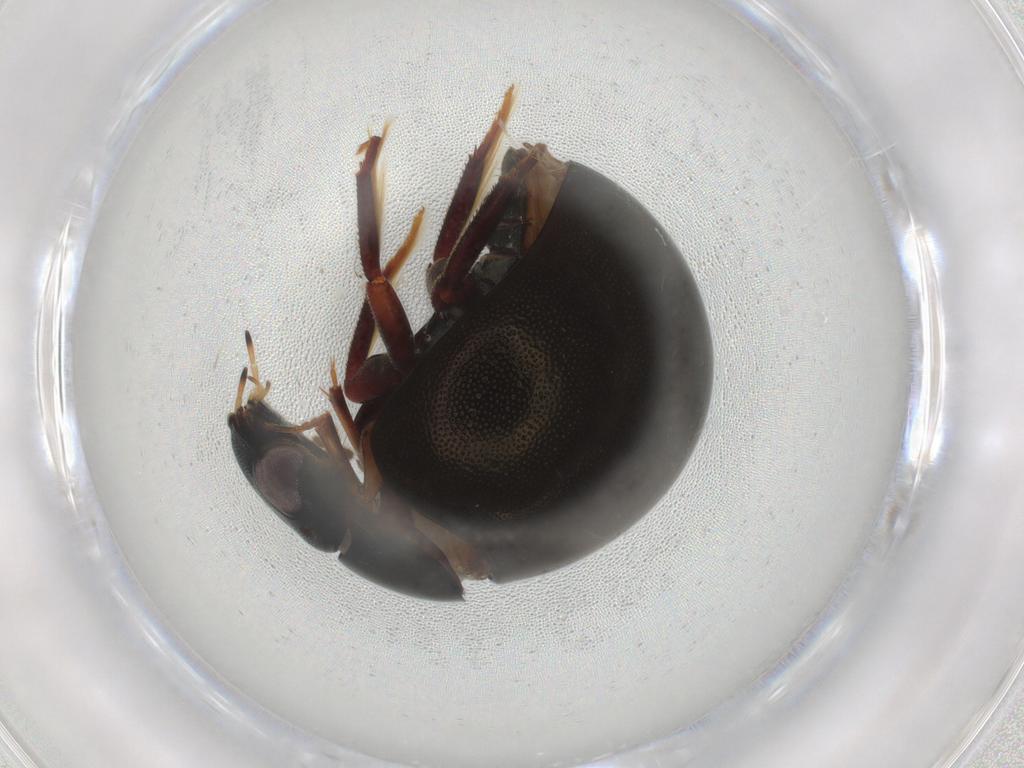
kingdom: Animalia
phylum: Arthropoda
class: Insecta
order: Coleoptera
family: Carabidae
